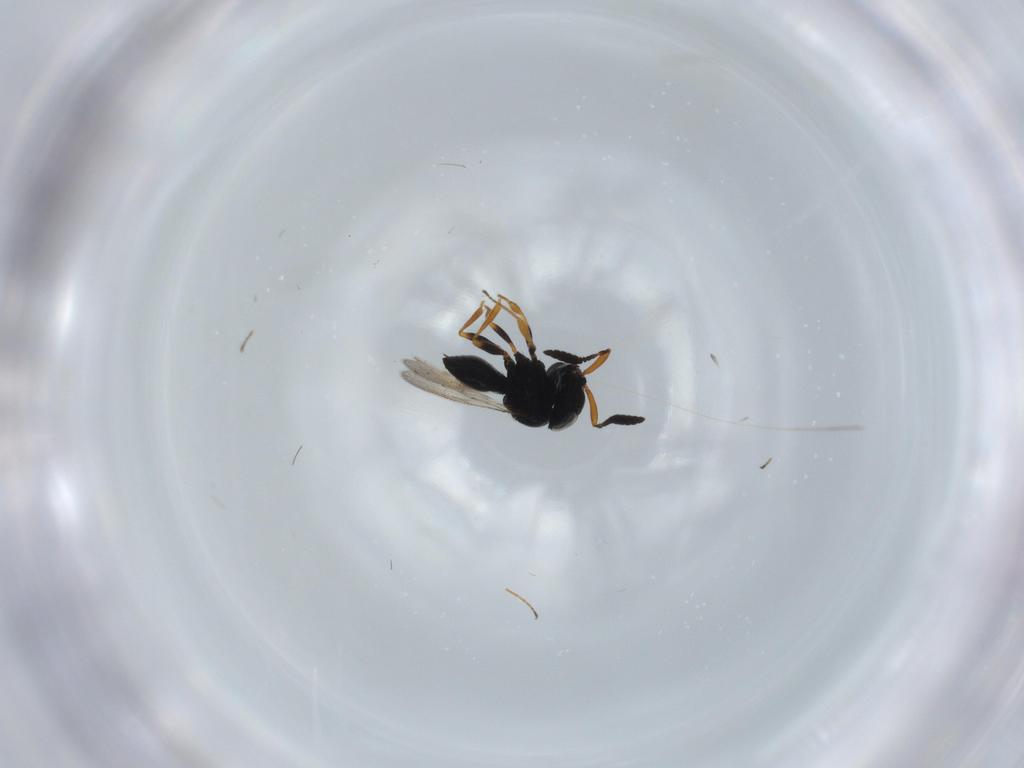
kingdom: Animalia
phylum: Arthropoda
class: Insecta
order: Hymenoptera
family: Scelionidae
